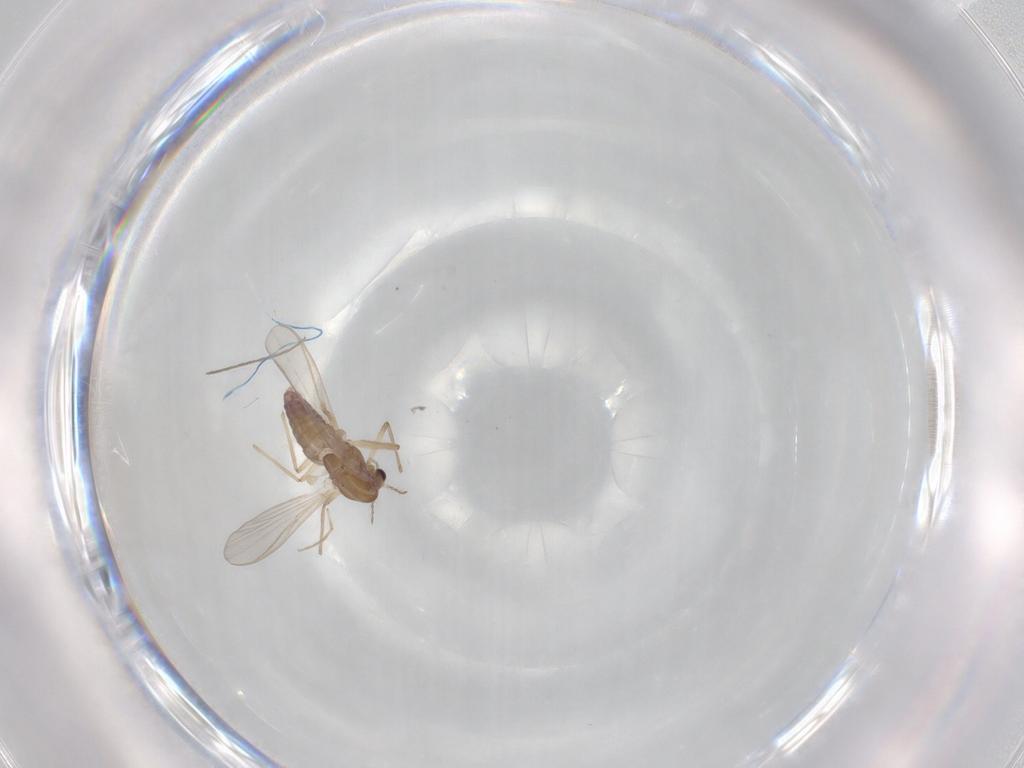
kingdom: Animalia
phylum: Arthropoda
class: Insecta
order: Diptera
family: Chironomidae
